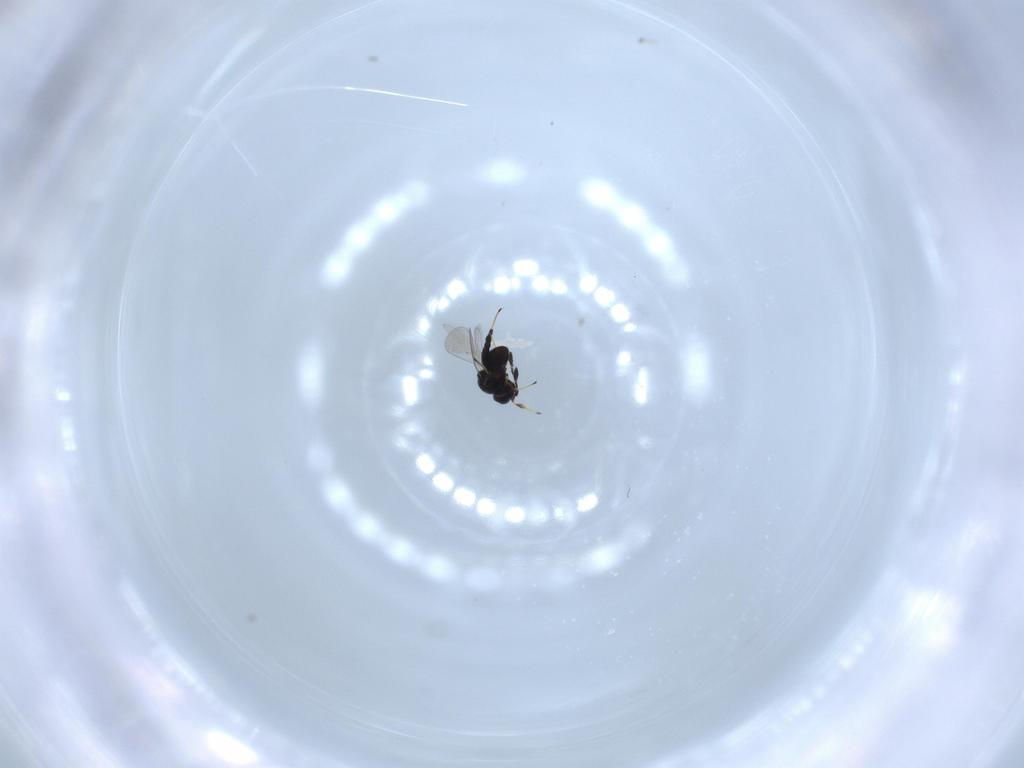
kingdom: Animalia
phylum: Arthropoda
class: Insecta
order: Hymenoptera
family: Platygastridae
